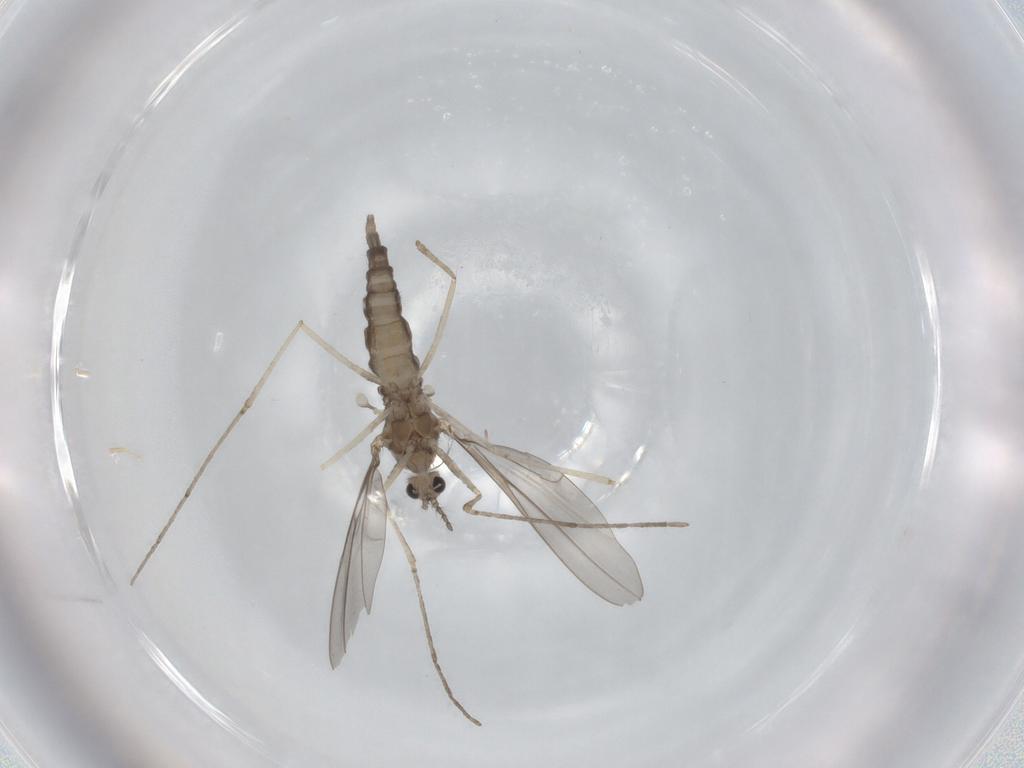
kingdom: Animalia
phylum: Arthropoda
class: Insecta
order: Diptera
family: Cecidomyiidae
